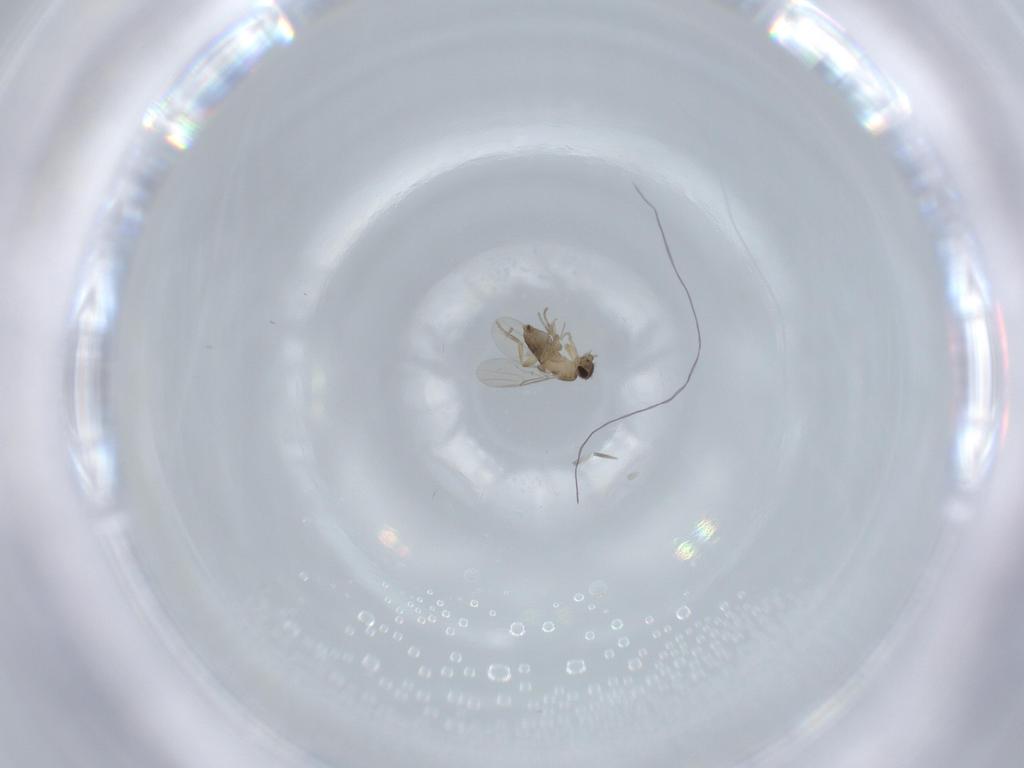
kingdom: Animalia
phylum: Arthropoda
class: Insecta
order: Diptera
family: Phoridae
